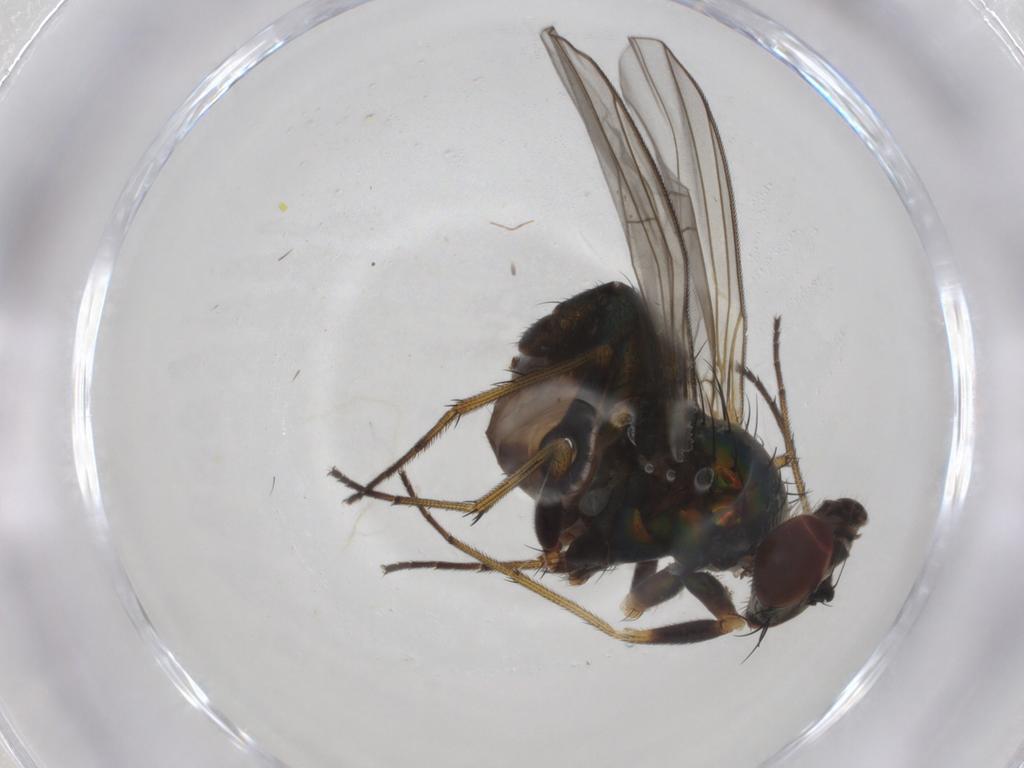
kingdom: Animalia
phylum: Arthropoda
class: Insecta
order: Diptera
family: Dolichopodidae
